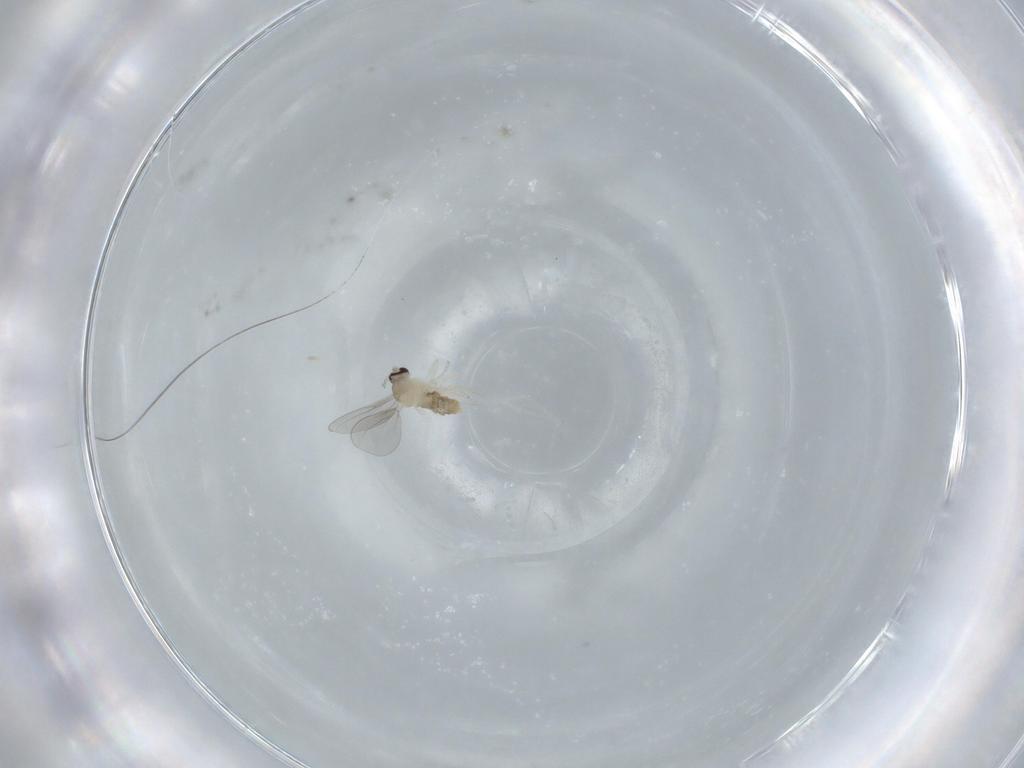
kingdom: Animalia
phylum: Arthropoda
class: Insecta
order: Diptera
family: Cecidomyiidae
